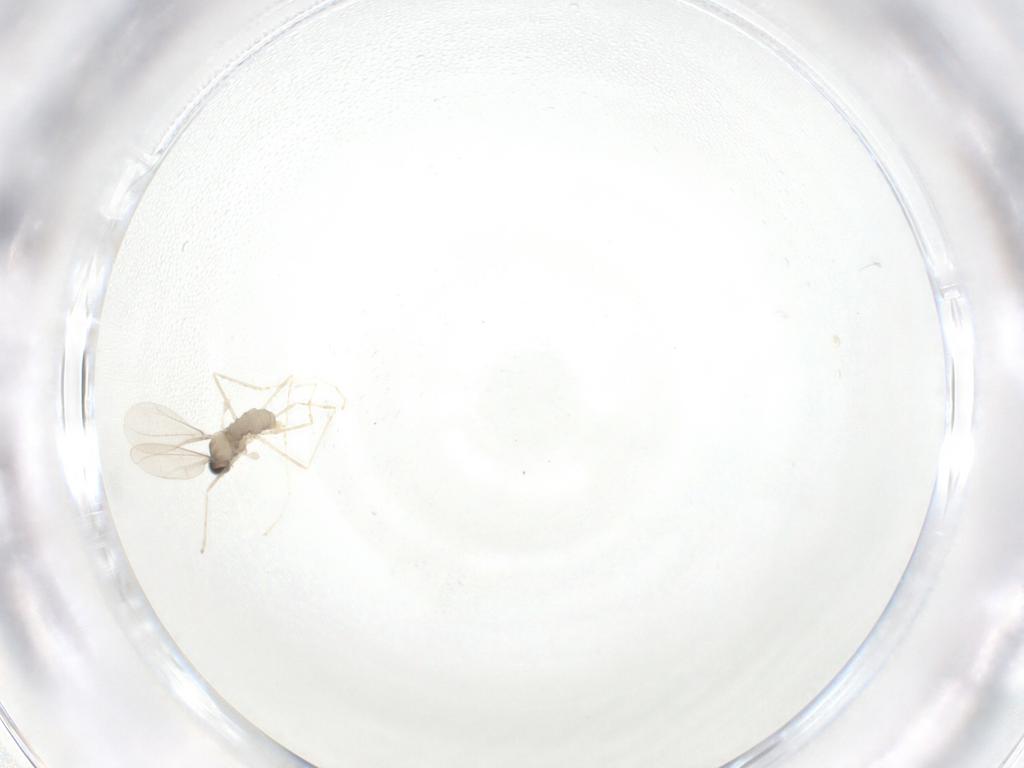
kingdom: Animalia
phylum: Arthropoda
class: Insecta
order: Diptera
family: Cecidomyiidae
